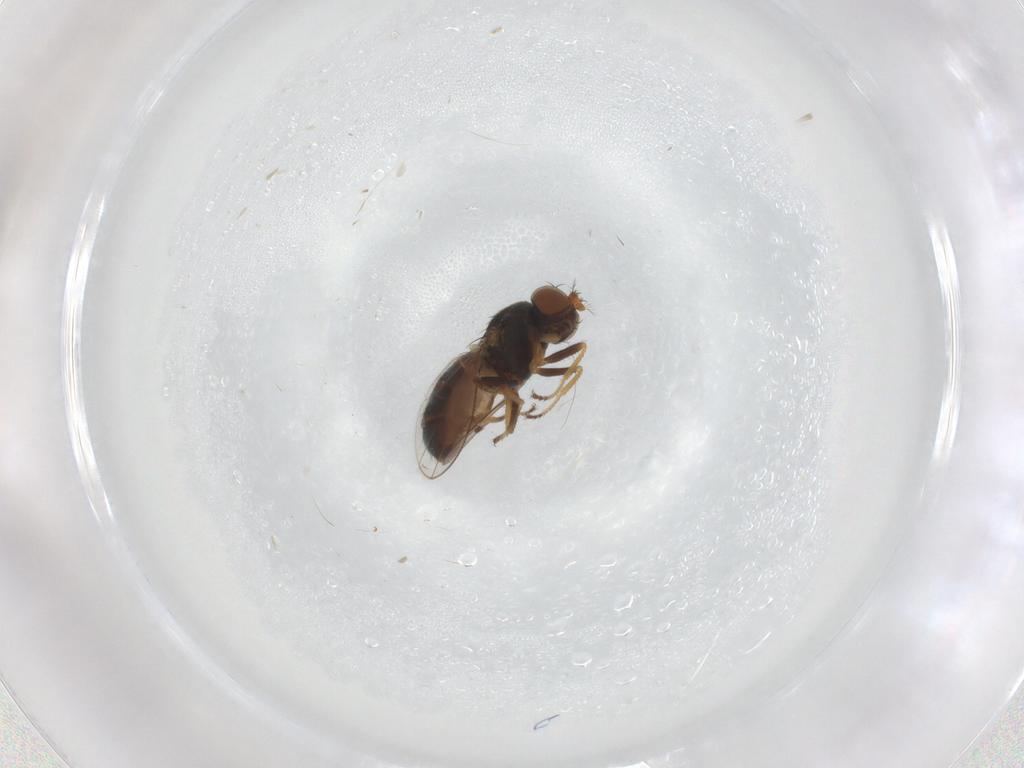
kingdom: Animalia
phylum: Arthropoda
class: Insecta
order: Diptera
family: Ephydridae
